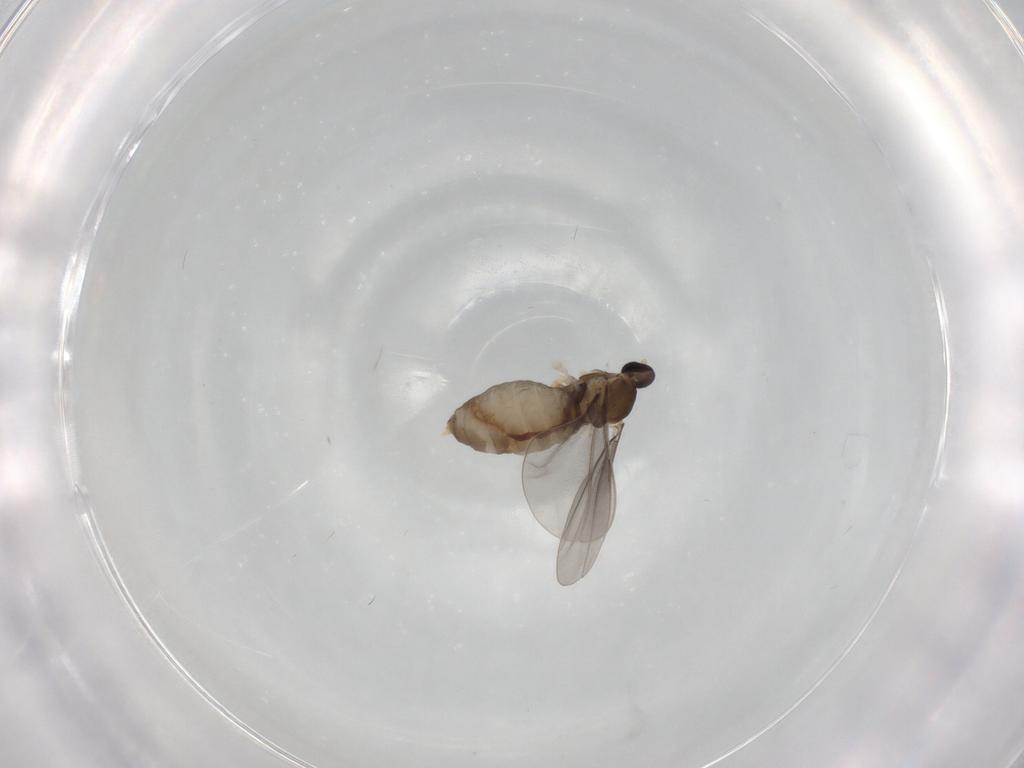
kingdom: Animalia
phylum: Arthropoda
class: Insecta
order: Diptera
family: Cecidomyiidae
